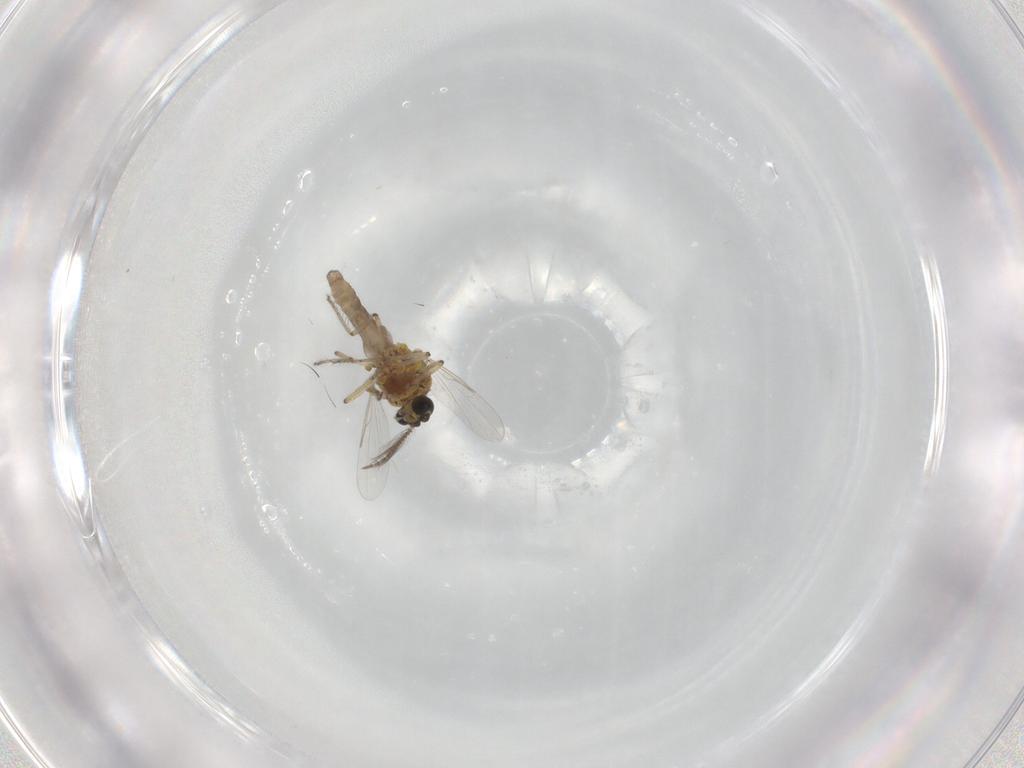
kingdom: Animalia
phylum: Arthropoda
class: Insecta
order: Diptera
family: Ceratopogonidae
